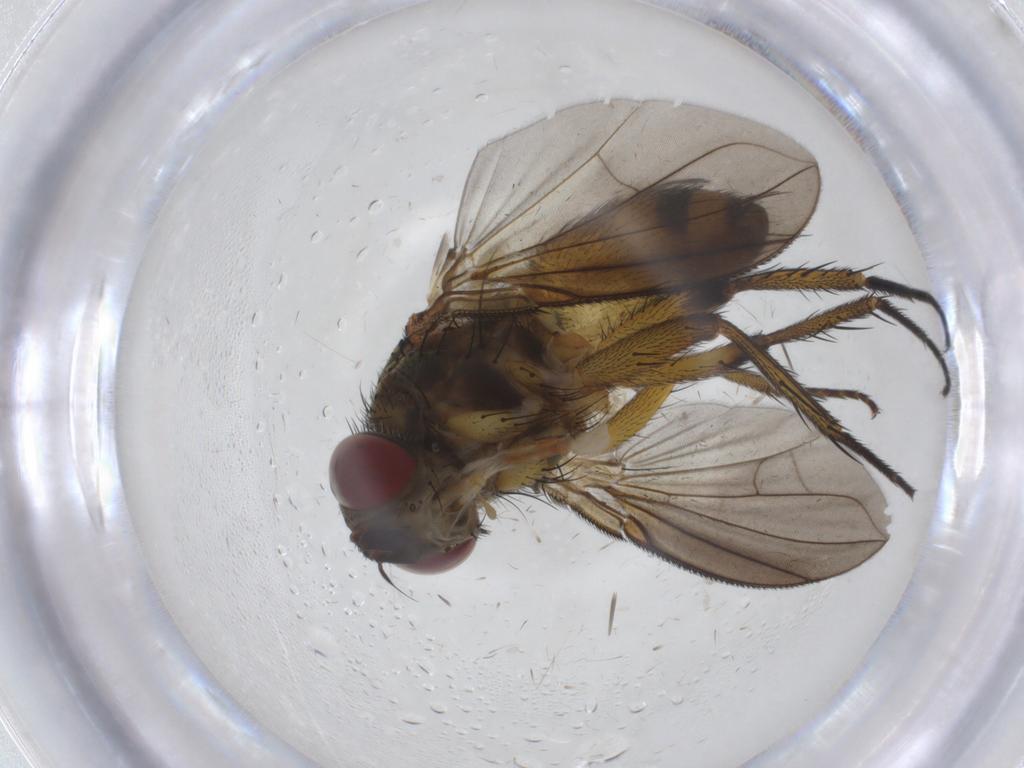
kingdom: Animalia
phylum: Arthropoda
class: Insecta
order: Diptera
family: Tachinidae
